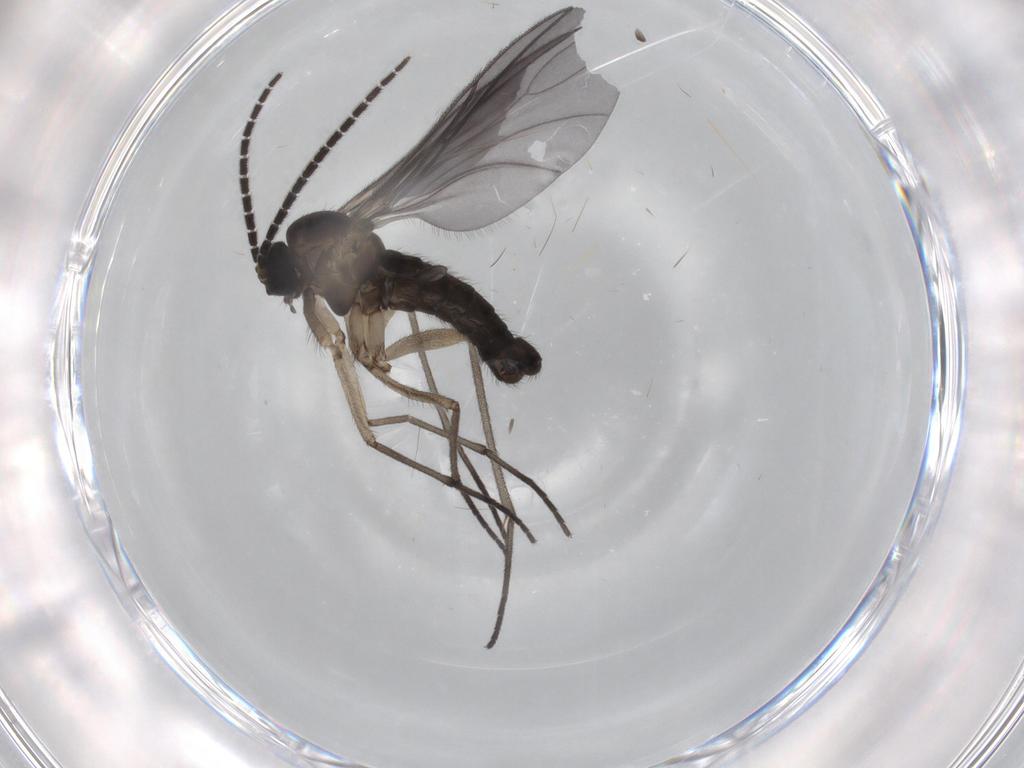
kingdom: Animalia
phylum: Arthropoda
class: Insecta
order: Diptera
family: Sciaridae
